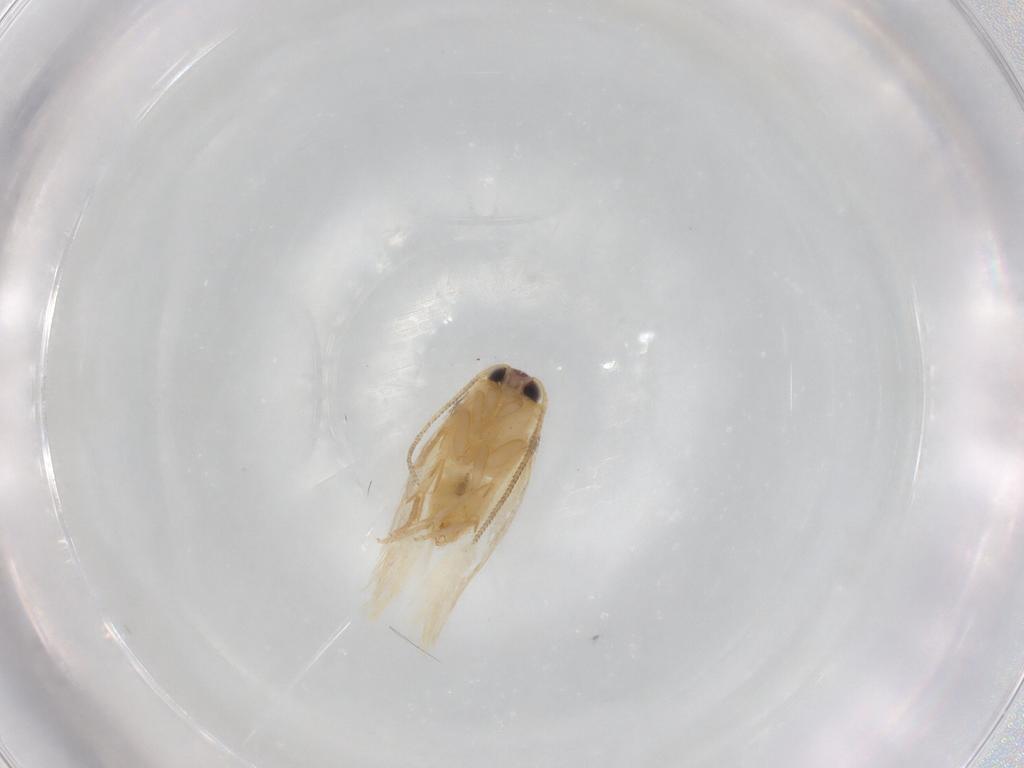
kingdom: Animalia
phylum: Arthropoda
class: Insecta
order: Lepidoptera
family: Nepticulidae
